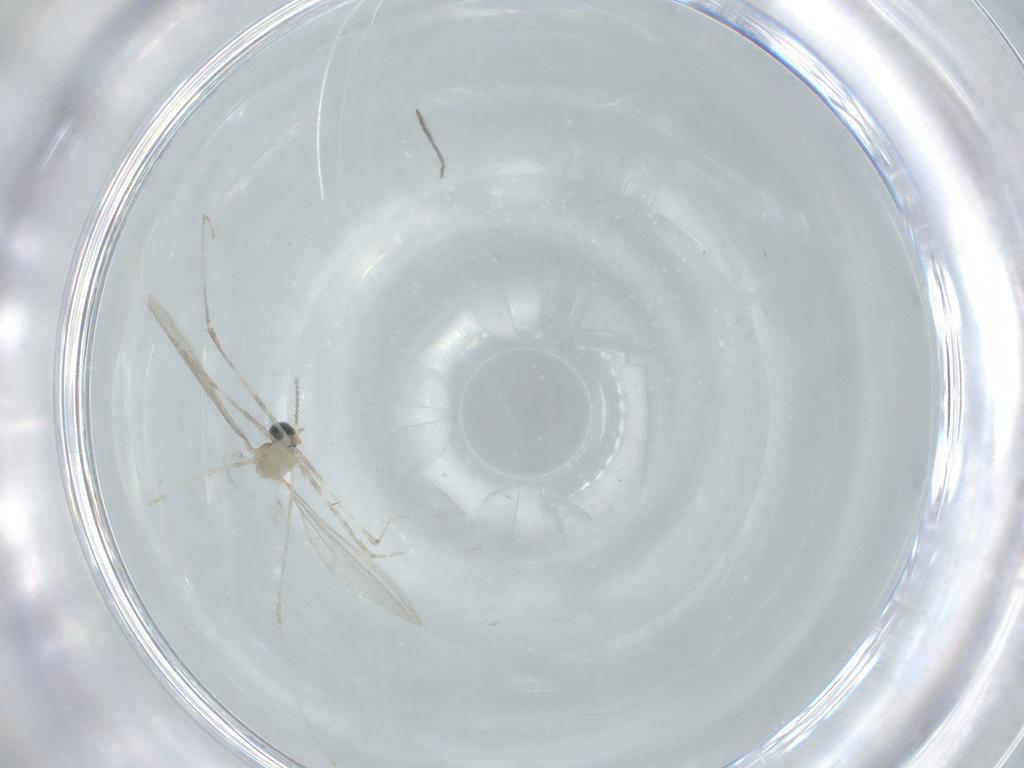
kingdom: Animalia
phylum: Arthropoda
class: Insecta
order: Diptera
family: Cecidomyiidae
